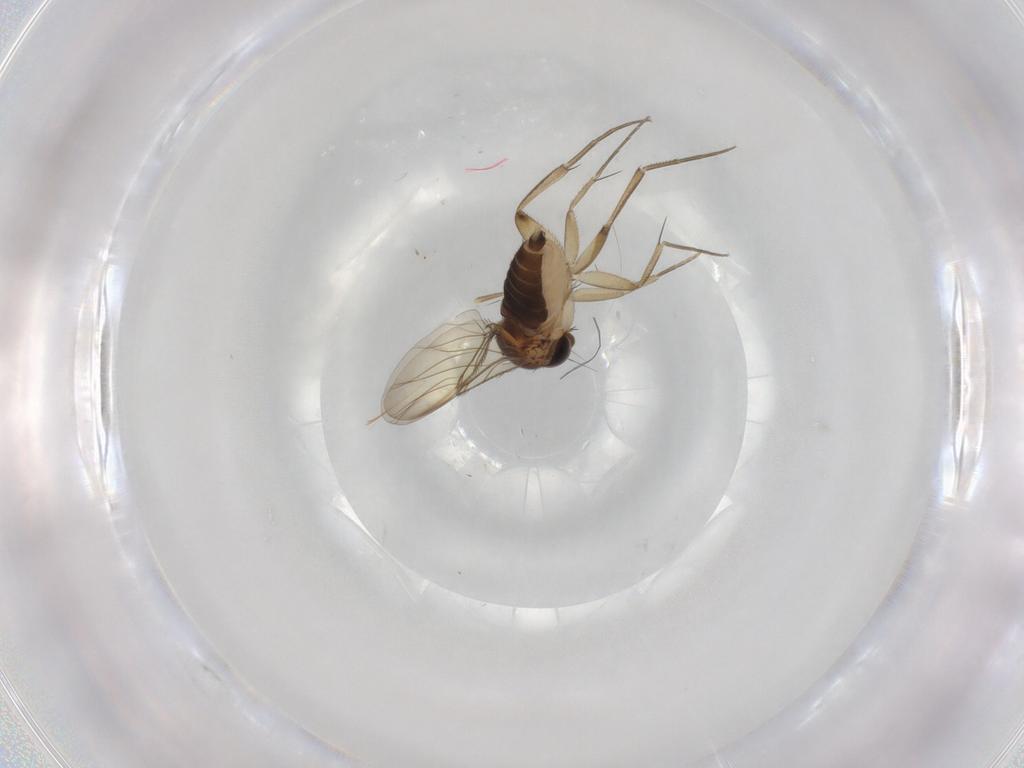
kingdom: Animalia
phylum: Arthropoda
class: Insecta
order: Diptera
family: Phoridae
